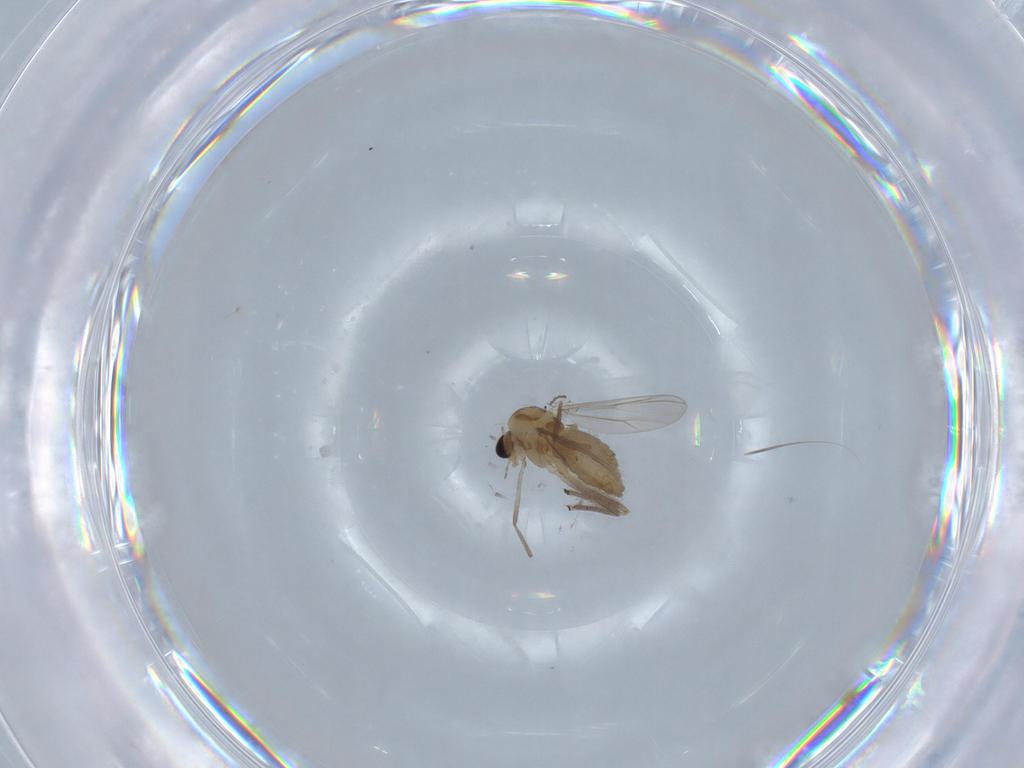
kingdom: Animalia
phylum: Arthropoda
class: Insecta
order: Diptera
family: Chironomidae
